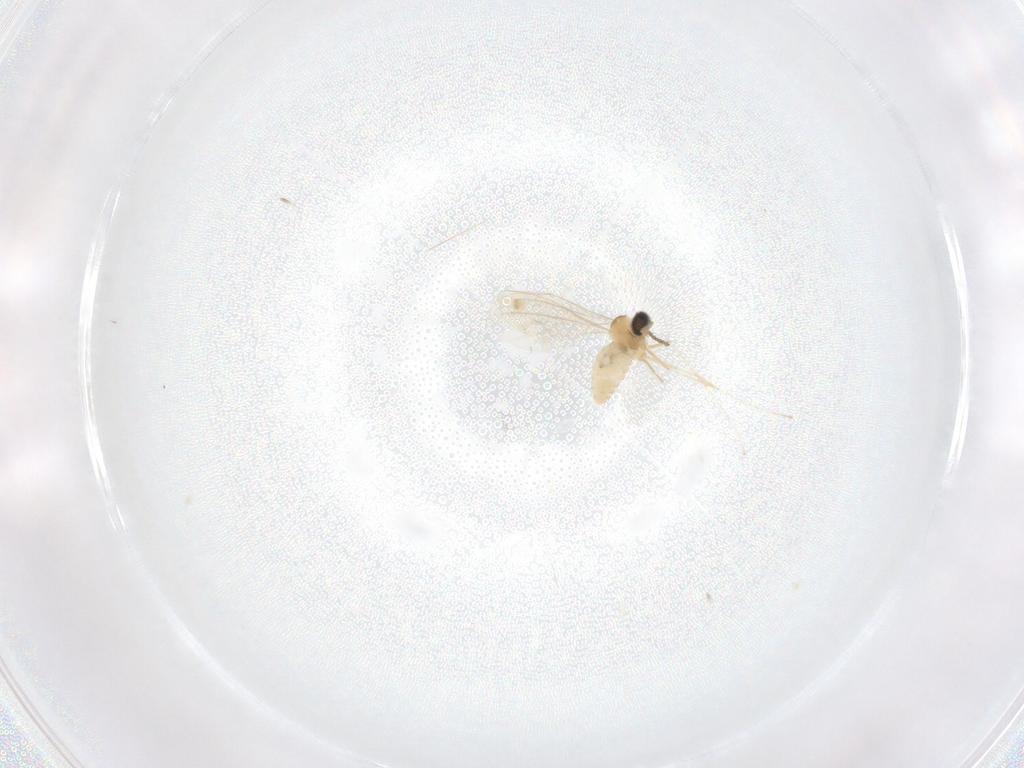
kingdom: Animalia
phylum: Arthropoda
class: Insecta
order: Diptera
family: Cecidomyiidae
